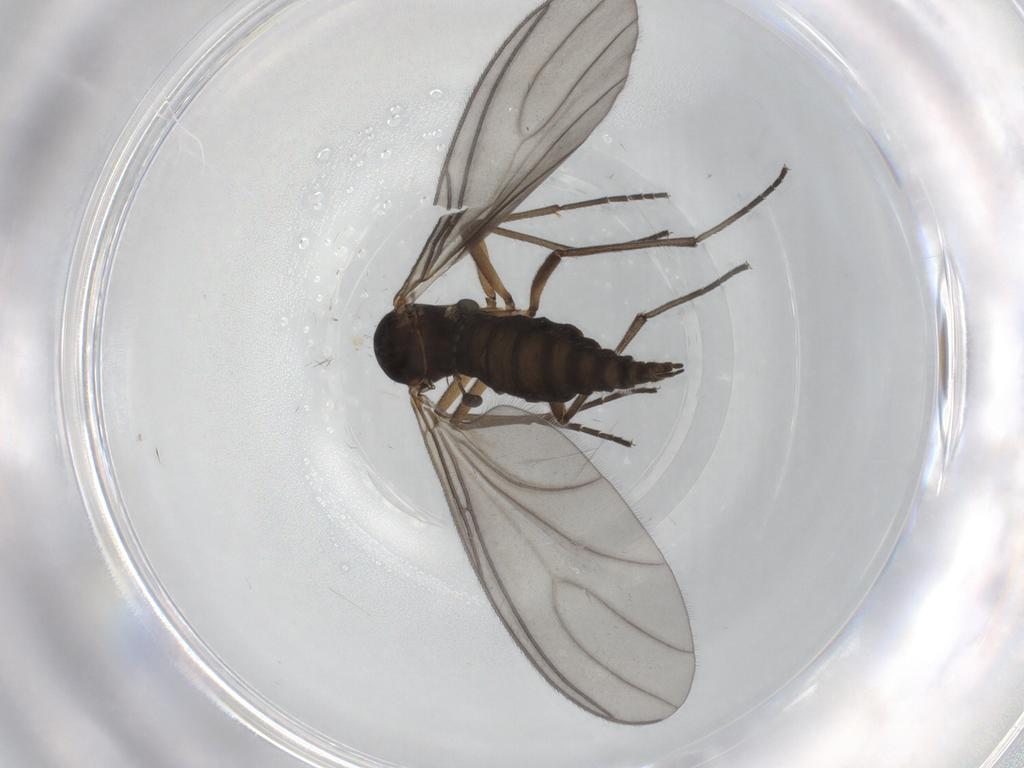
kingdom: Animalia
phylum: Arthropoda
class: Insecta
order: Diptera
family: Sciaridae
